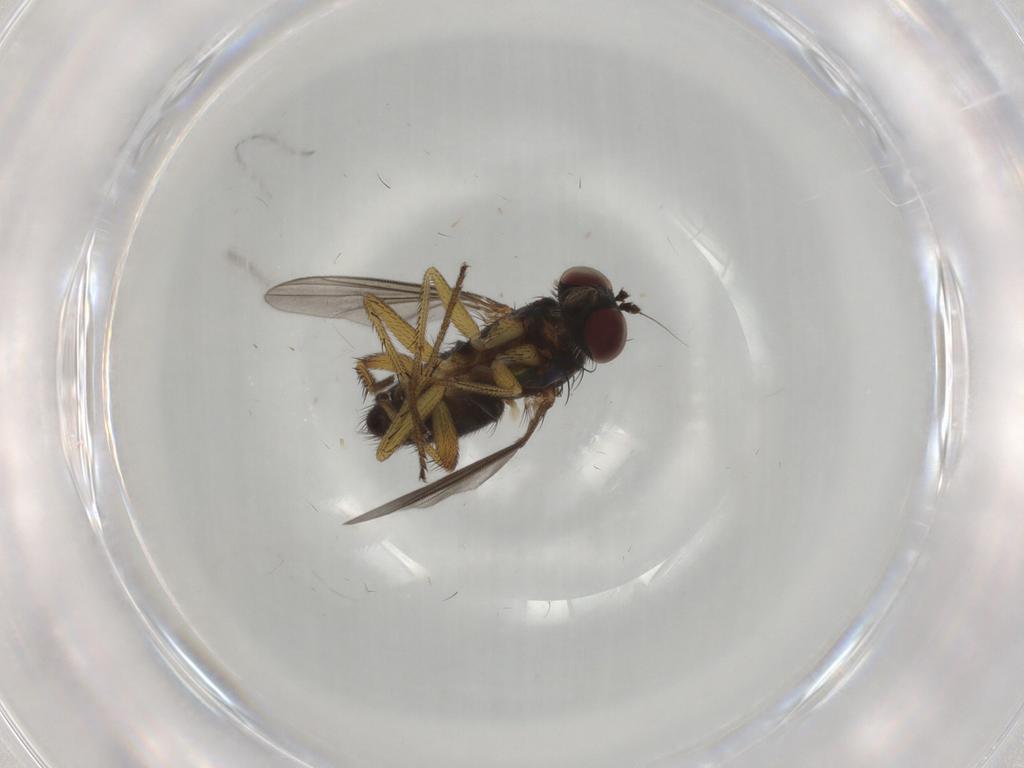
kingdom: Animalia
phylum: Arthropoda
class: Insecta
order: Diptera
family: Dolichopodidae
